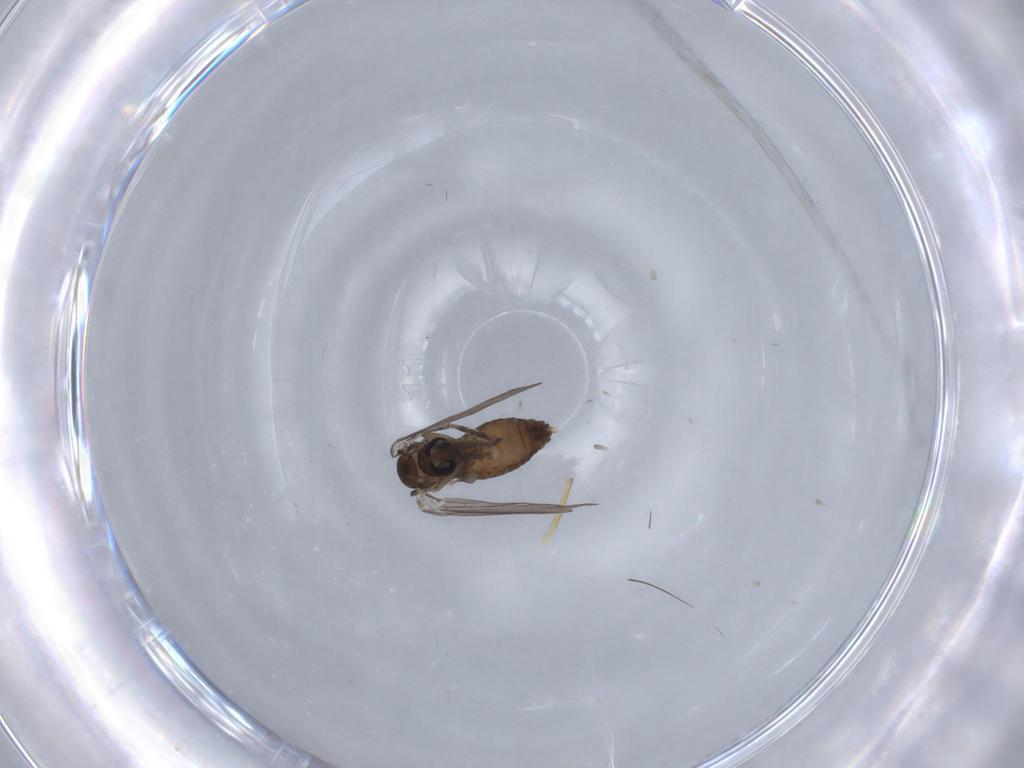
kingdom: Animalia
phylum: Arthropoda
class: Insecta
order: Diptera
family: Psychodidae
